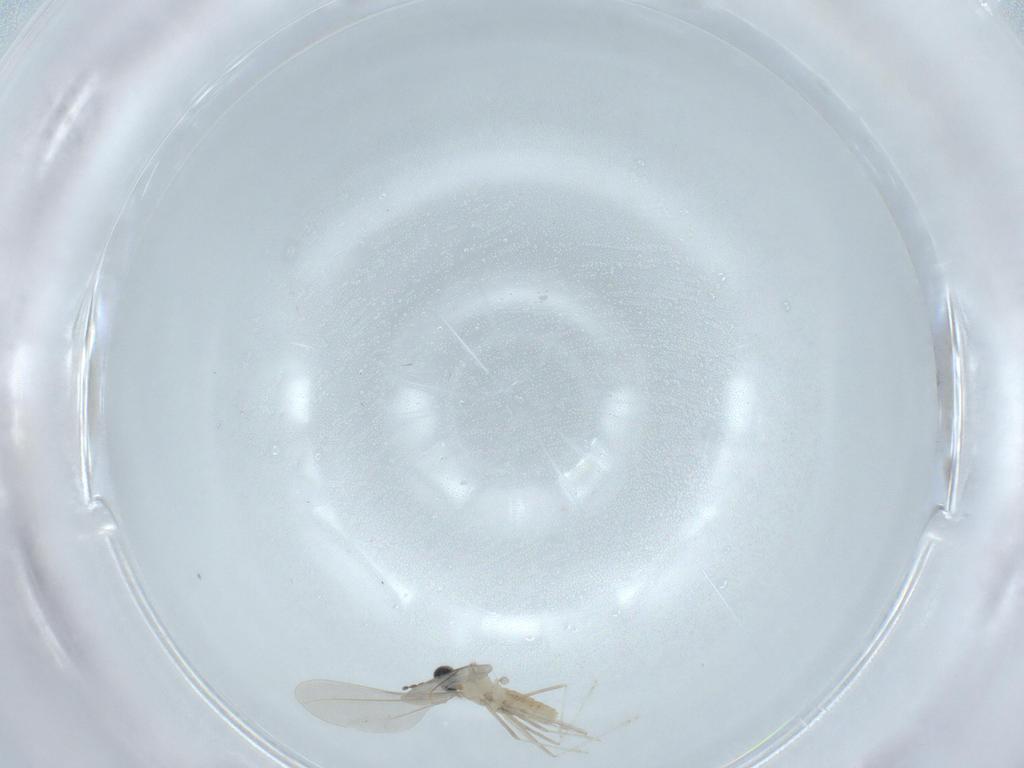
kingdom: Animalia
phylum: Arthropoda
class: Insecta
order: Diptera
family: Cecidomyiidae
